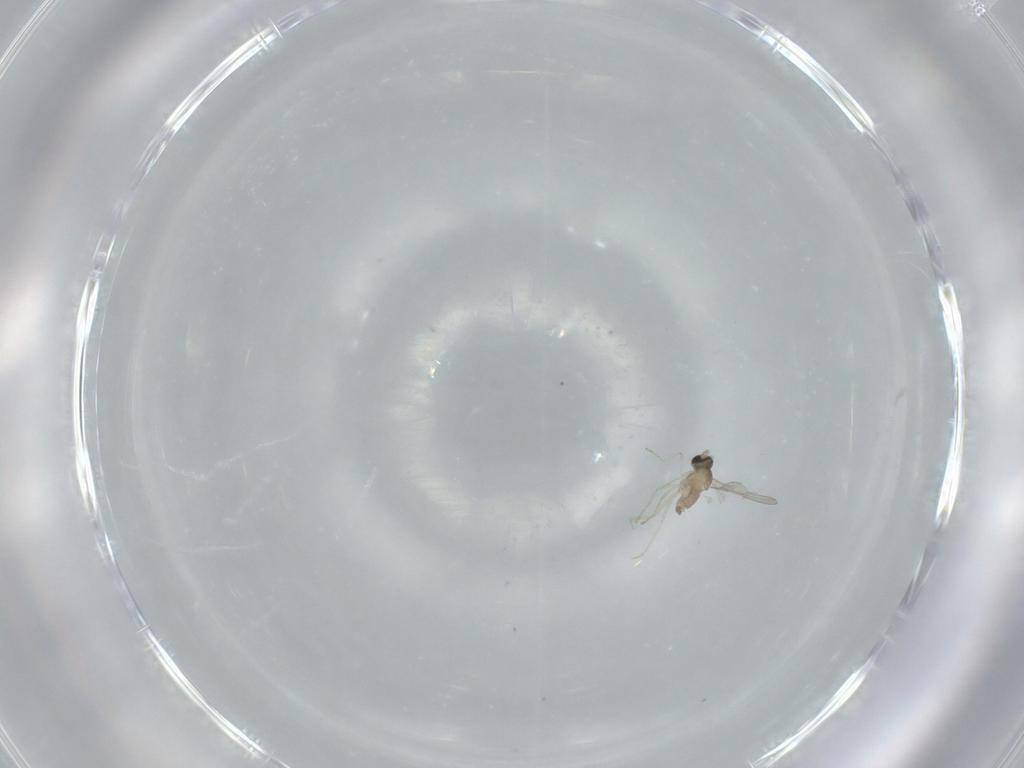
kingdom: Animalia
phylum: Arthropoda
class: Insecta
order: Diptera
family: Cecidomyiidae
